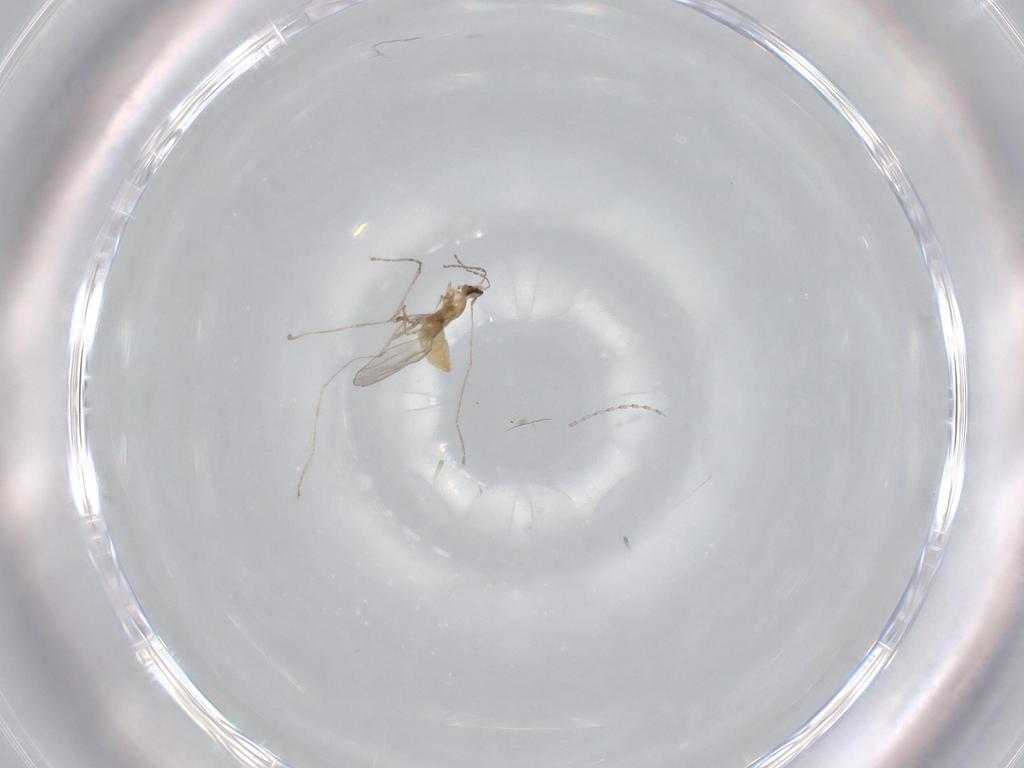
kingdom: Animalia
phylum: Arthropoda
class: Insecta
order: Diptera
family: Cecidomyiidae
